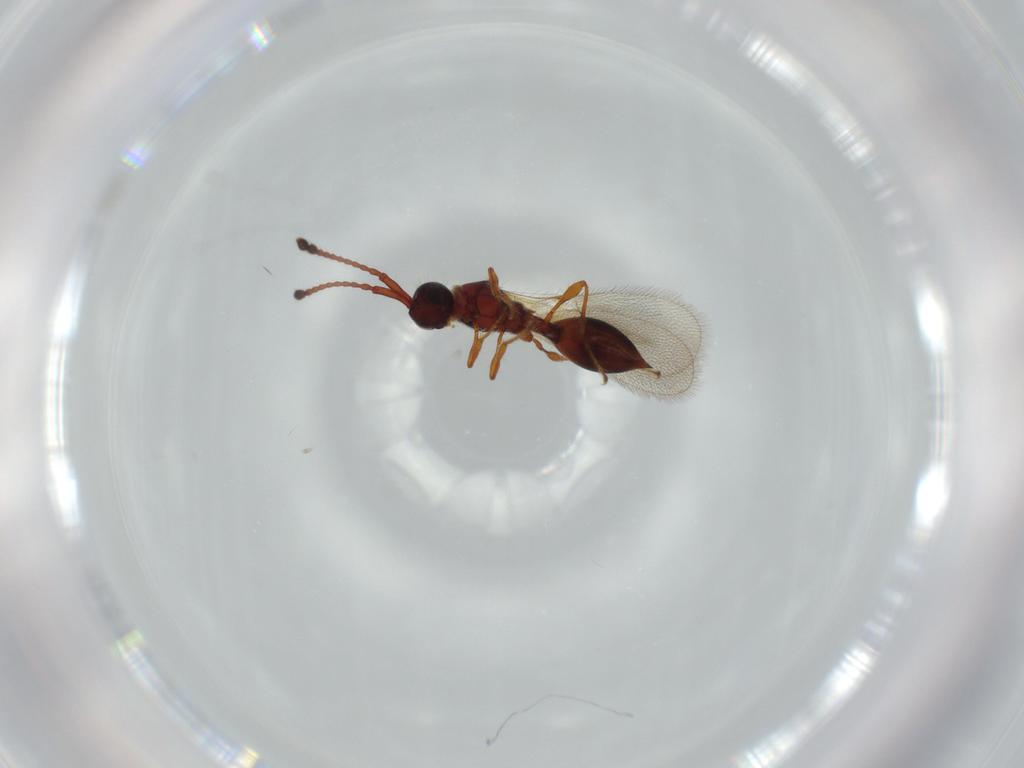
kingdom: Animalia
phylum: Arthropoda
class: Insecta
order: Hymenoptera
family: Diapriidae
